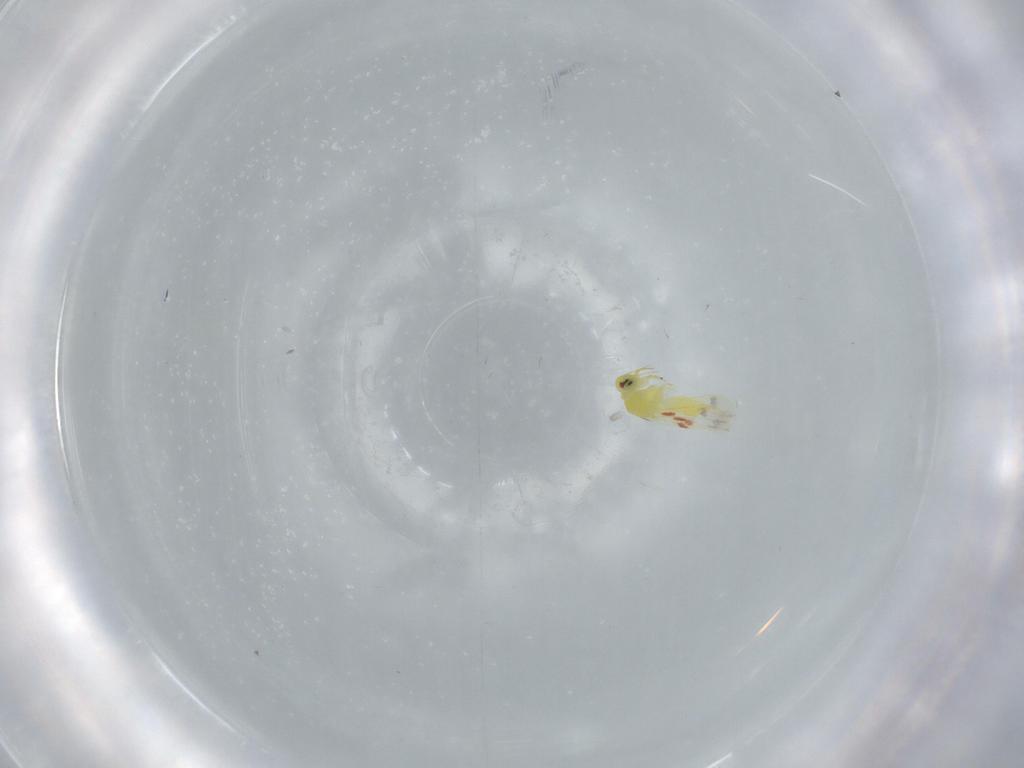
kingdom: Animalia
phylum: Arthropoda
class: Insecta
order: Hemiptera
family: Aleyrodidae
